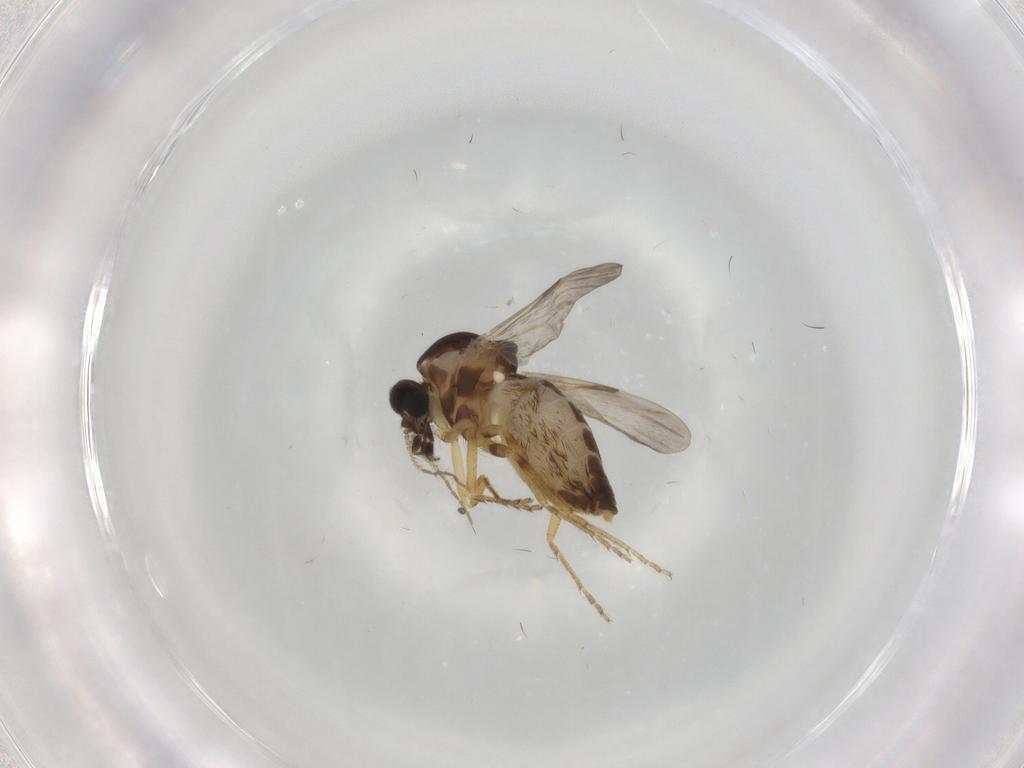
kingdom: Animalia
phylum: Arthropoda
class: Insecta
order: Diptera
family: Ceratopogonidae
